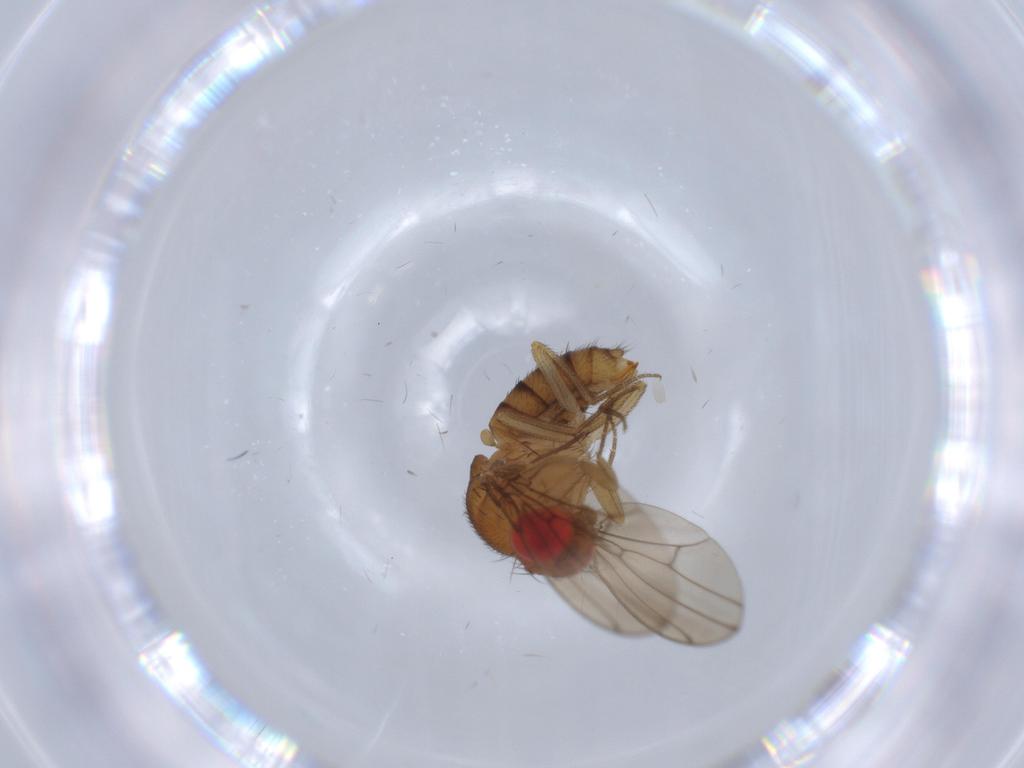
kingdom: Animalia
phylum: Arthropoda
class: Insecta
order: Diptera
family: Drosophilidae
